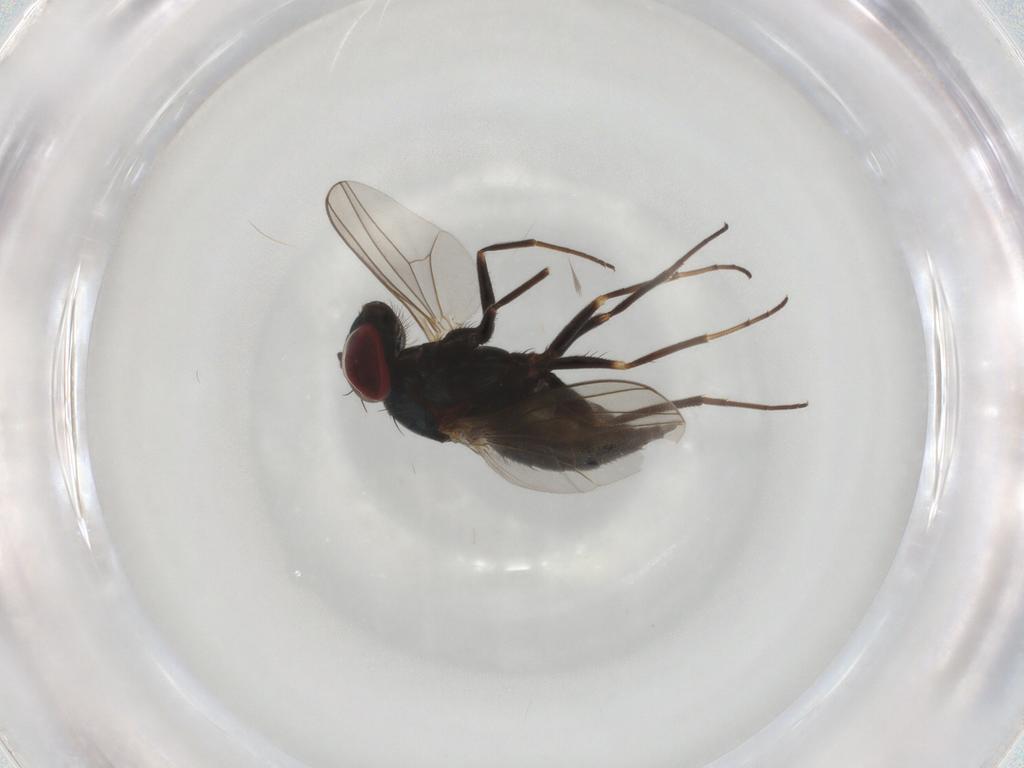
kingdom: Animalia
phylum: Arthropoda
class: Insecta
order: Diptera
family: Dolichopodidae
